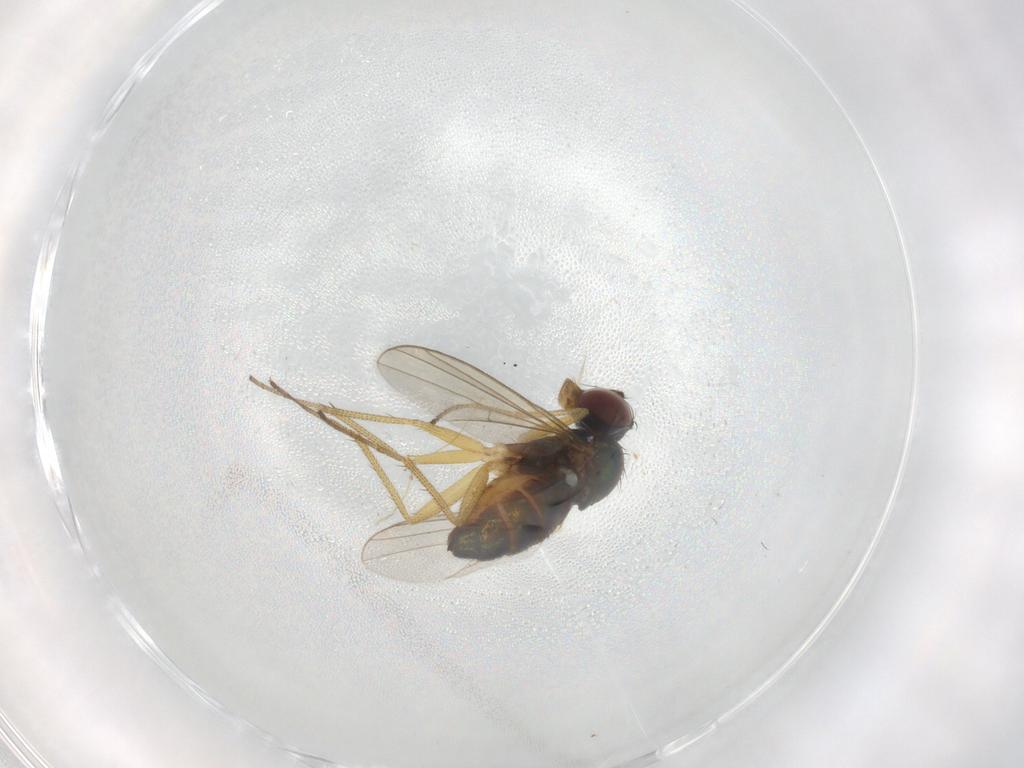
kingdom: Animalia
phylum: Arthropoda
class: Insecta
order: Diptera
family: Dolichopodidae
